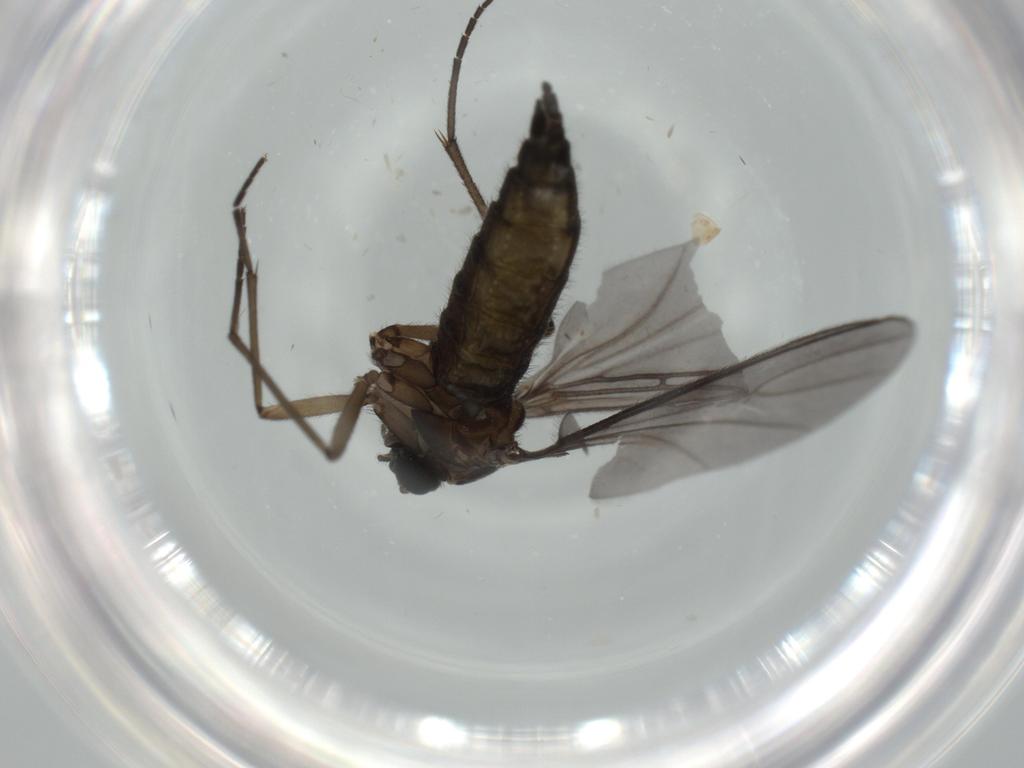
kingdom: Animalia
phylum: Arthropoda
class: Insecta
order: Diptera
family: Sciaridae
